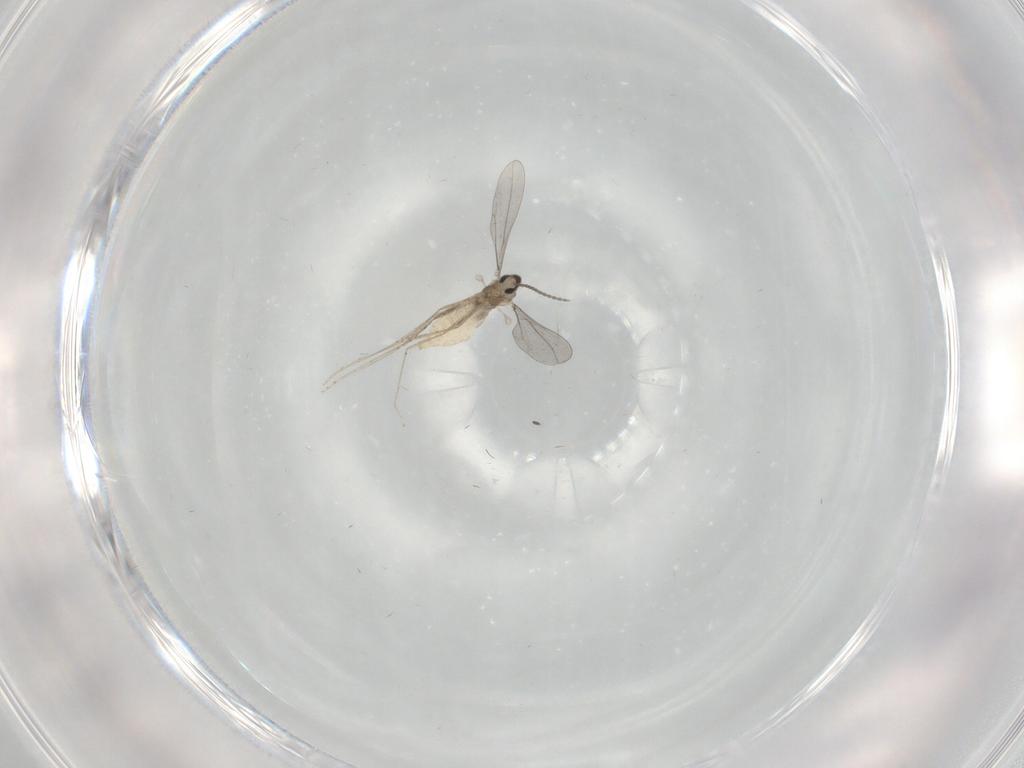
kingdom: Animalia
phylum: Arthropoda
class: Insecta
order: Diptera
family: Cecidomyiidae
